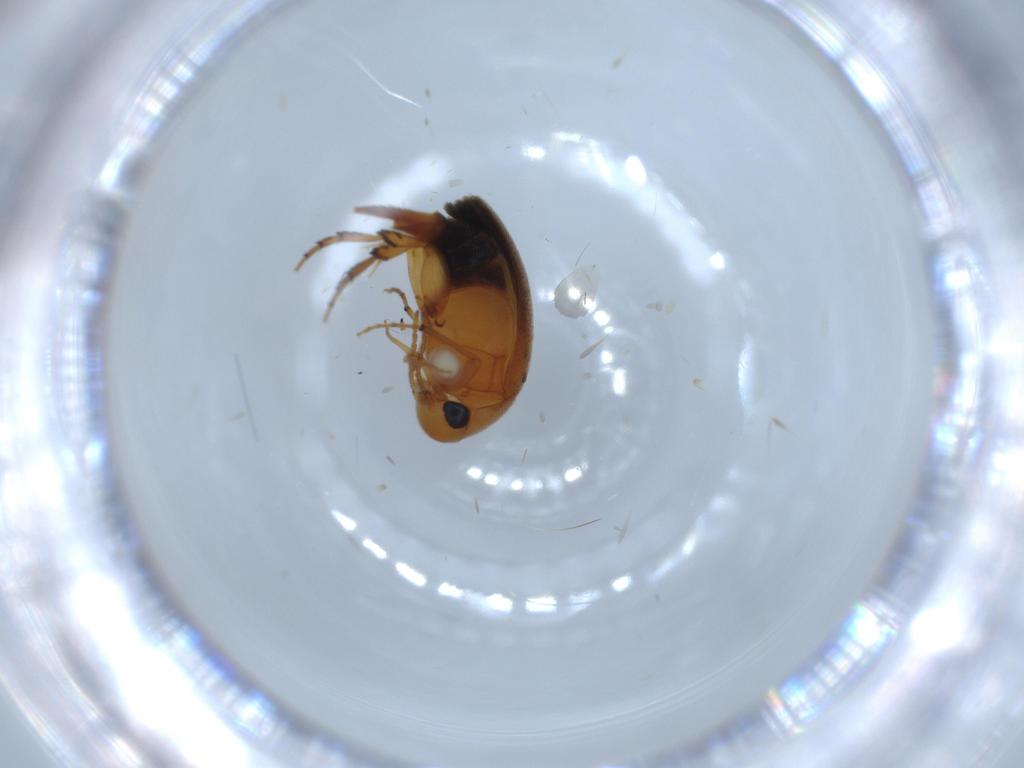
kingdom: Animalia
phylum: Arthropoda
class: Insecta
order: Coleoptera
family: Mordellidae
